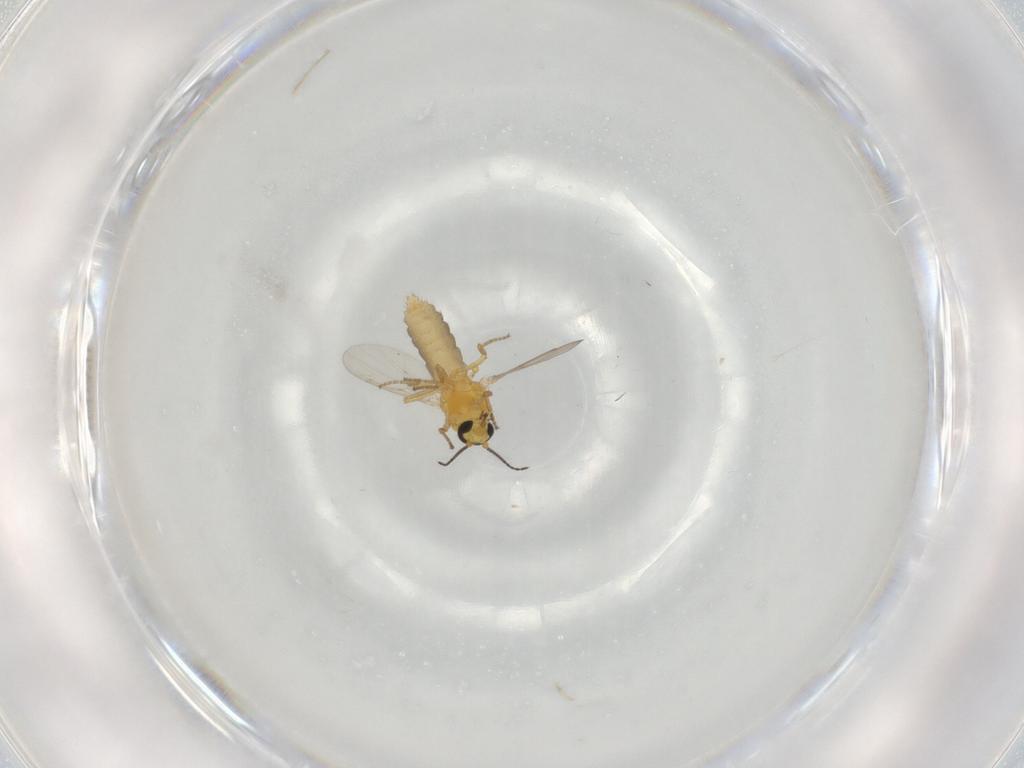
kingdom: Animalia
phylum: Arthropoda
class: Insecta
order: Diptera
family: Ceratopogonidae
